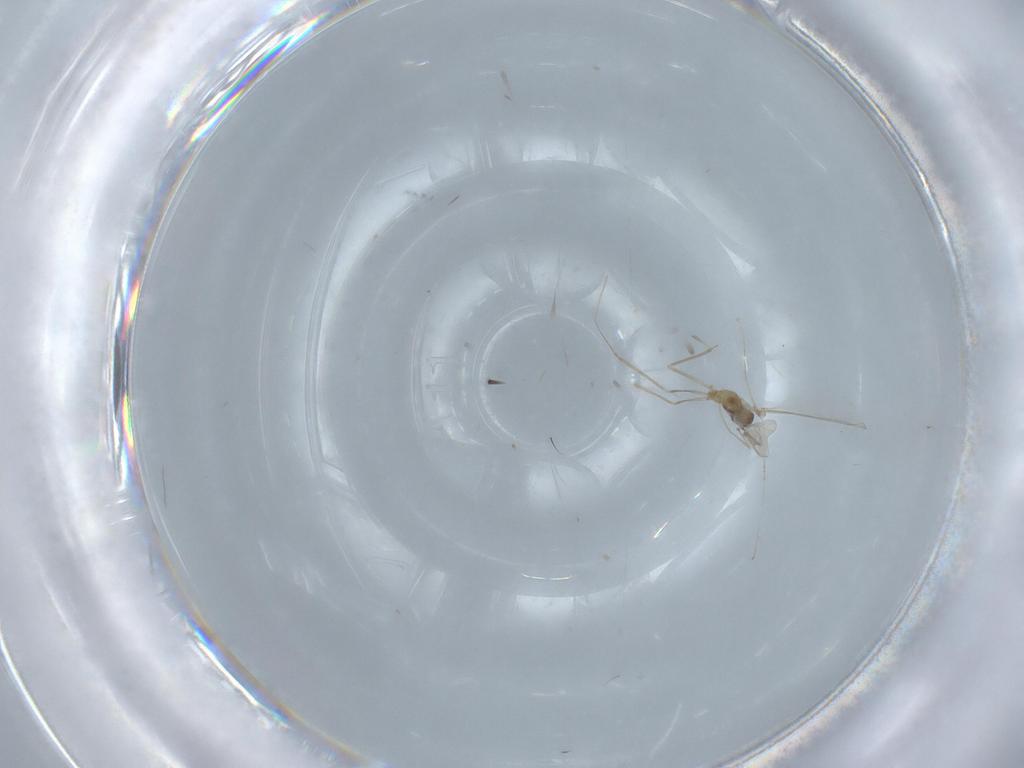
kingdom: Animalia
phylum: Arthropoda
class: Insecta
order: Diptera
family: Cecidomyiidae
